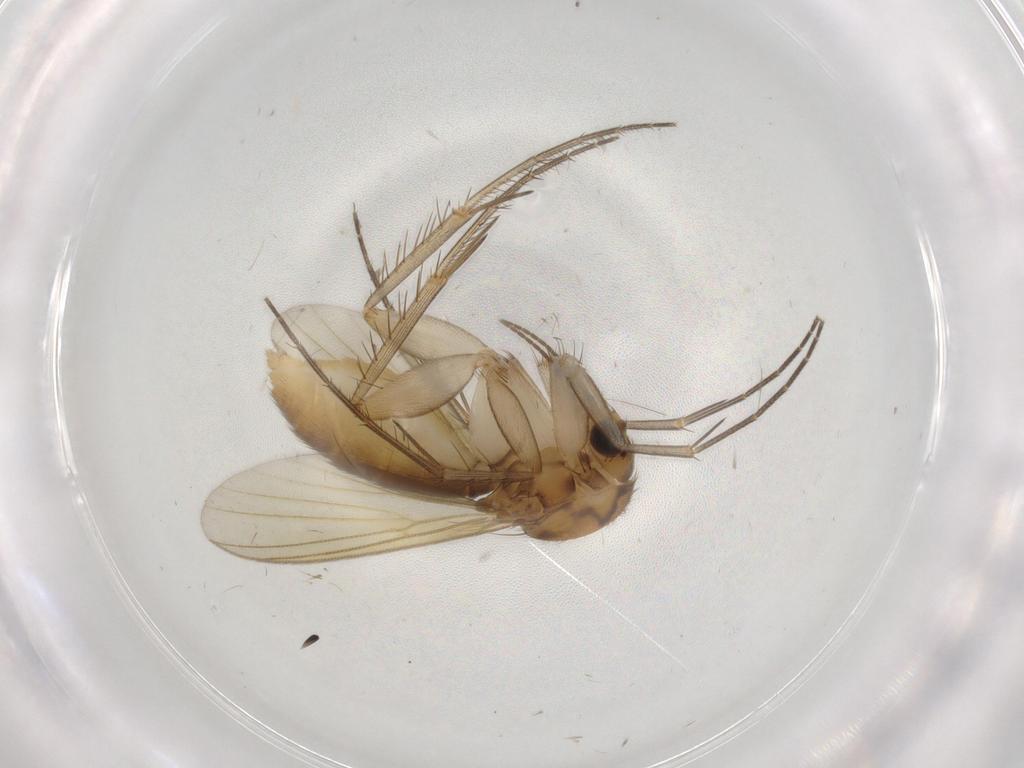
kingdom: Animalia
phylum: Arthropoda
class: Insecta
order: Diptera
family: Mycetophilidae
